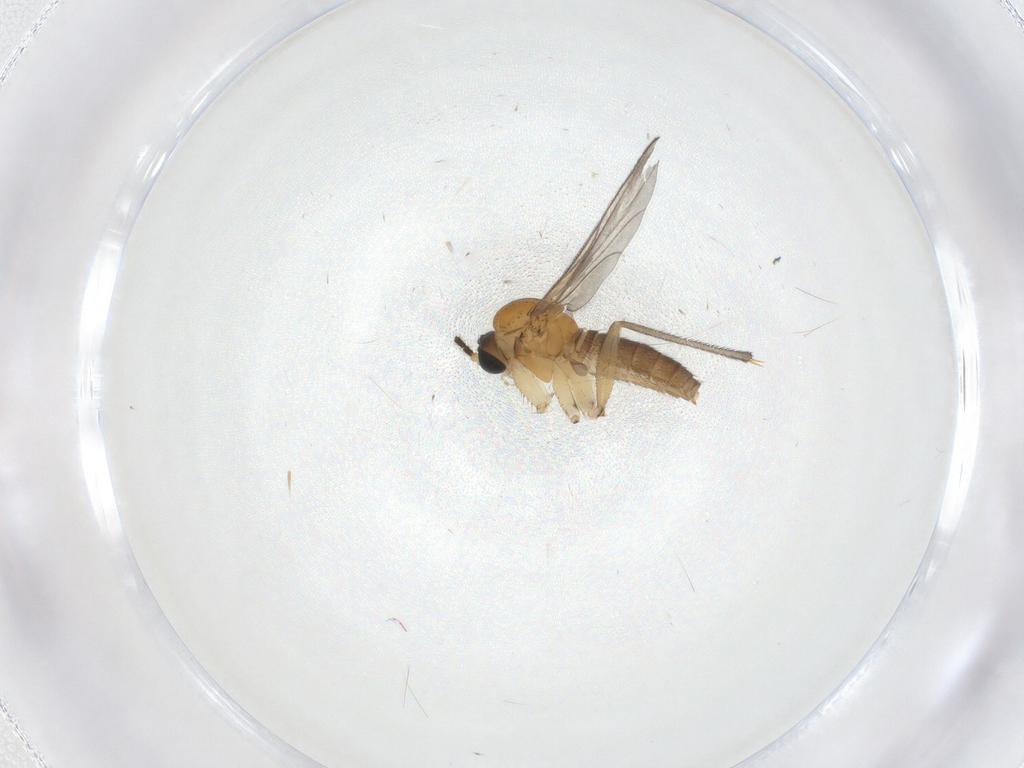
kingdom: Animalia
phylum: Arthropoda
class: Insecta
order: Diptera
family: Sciaridae
